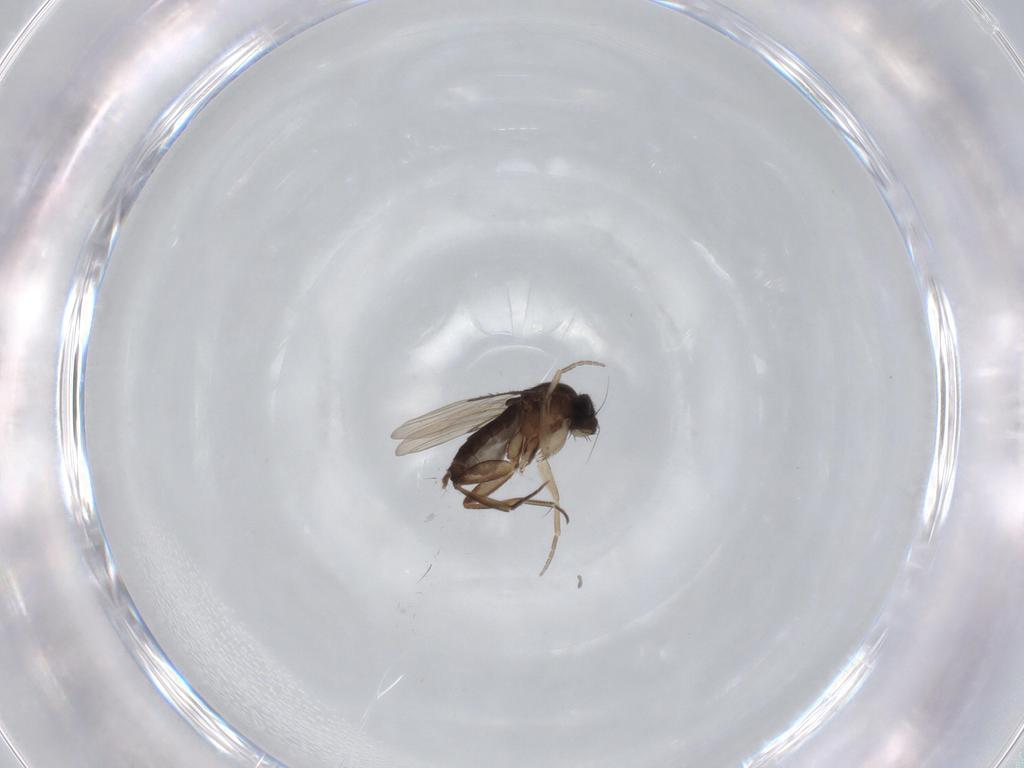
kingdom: Animalia
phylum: Arthropoda
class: Insecta
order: Diptera
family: Phoridae
